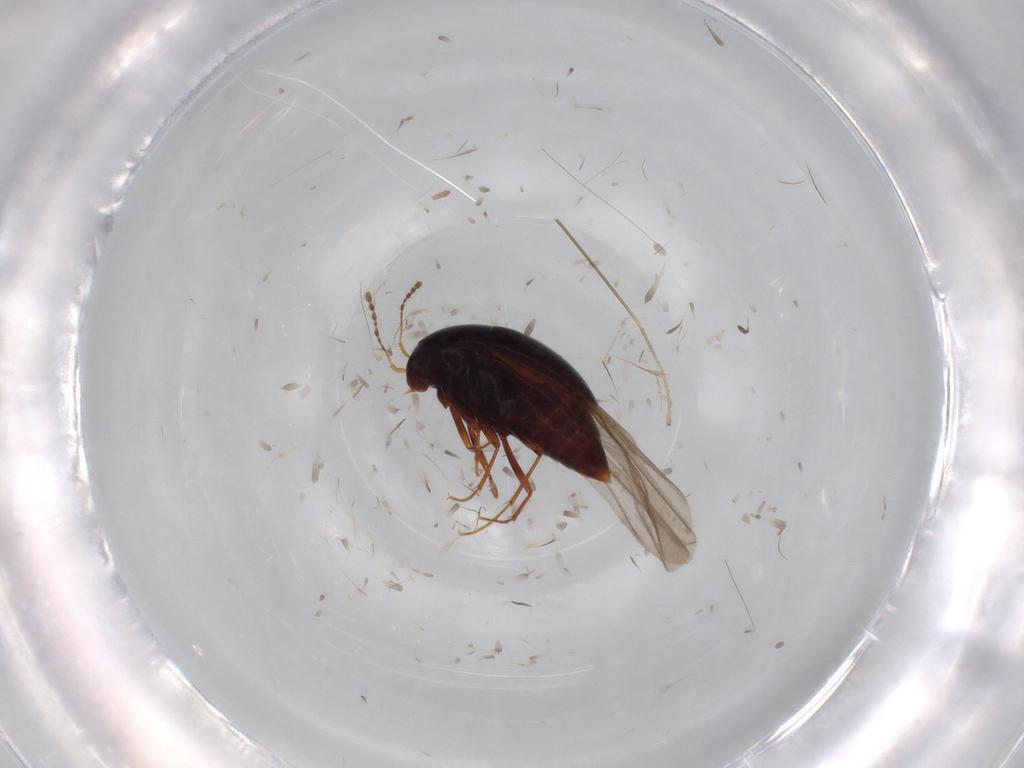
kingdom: Animalia
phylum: Arthropoda
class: Insecta
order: Coleoptera
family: Staphylinidae
